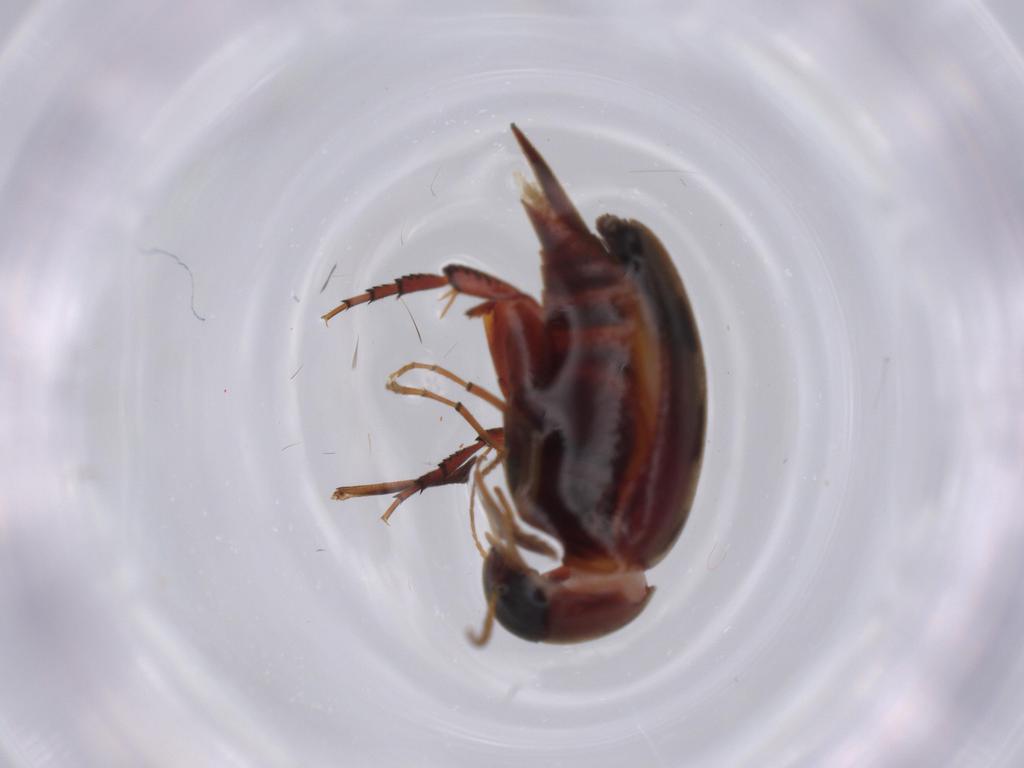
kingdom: Animalia
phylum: Arthropoda
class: Insecta
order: Coleoptera
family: Mordellidae
